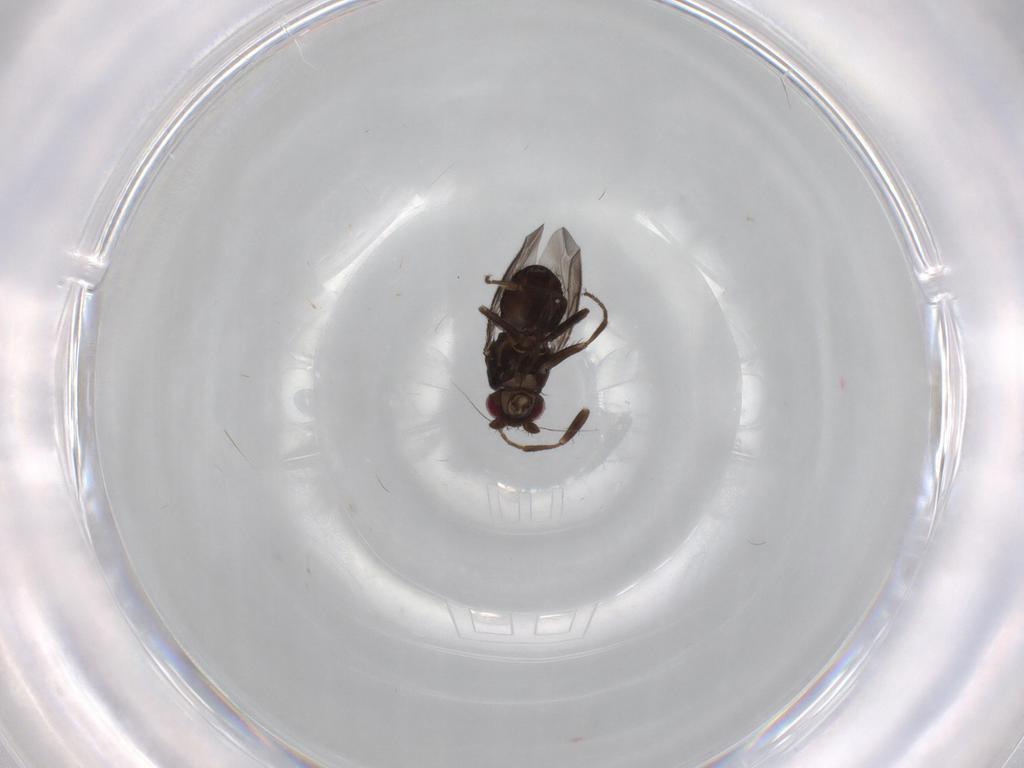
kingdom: Animalia
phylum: Arthropoda
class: Insecta
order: Diptera
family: Sphaeroceridae
